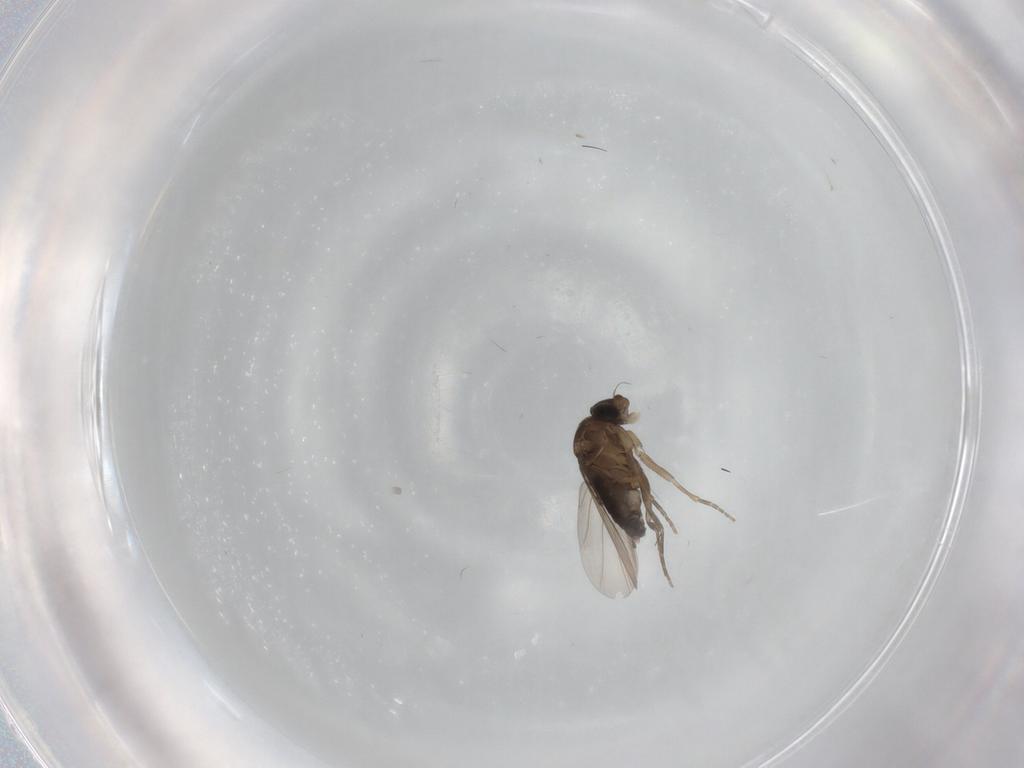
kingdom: Animalia
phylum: Arthropoda
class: Insecta
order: Diptera
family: Phoridae
